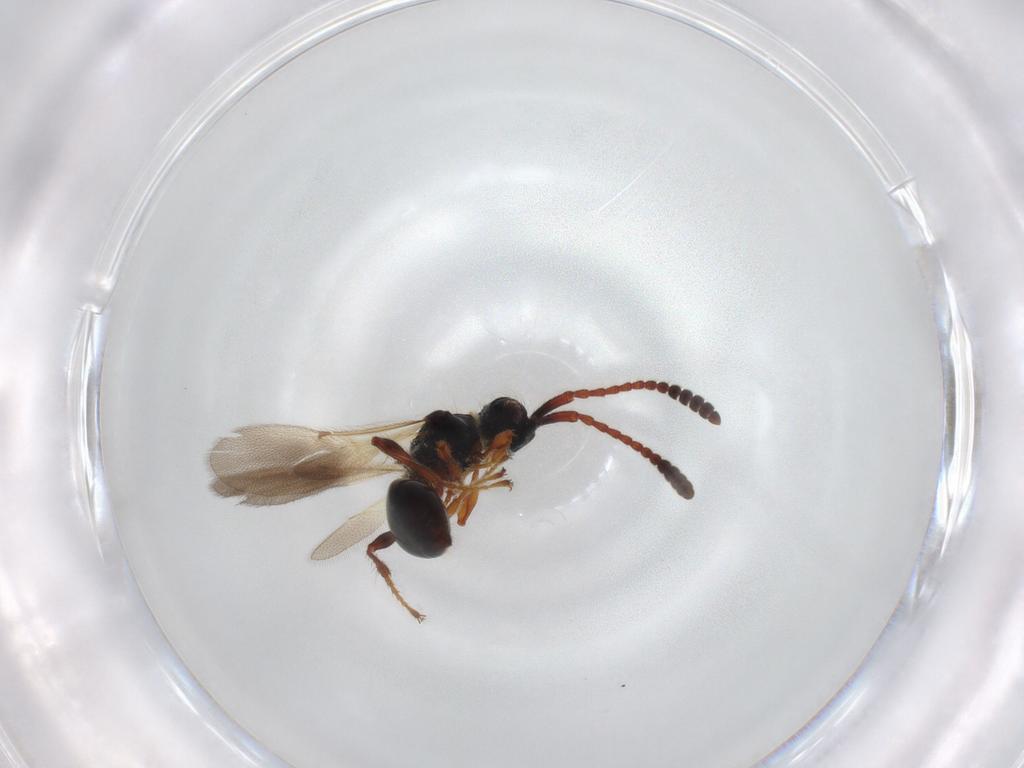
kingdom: Animalia
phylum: Arthropoda
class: Insecta
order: Hymenoptera
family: Diapriidae
